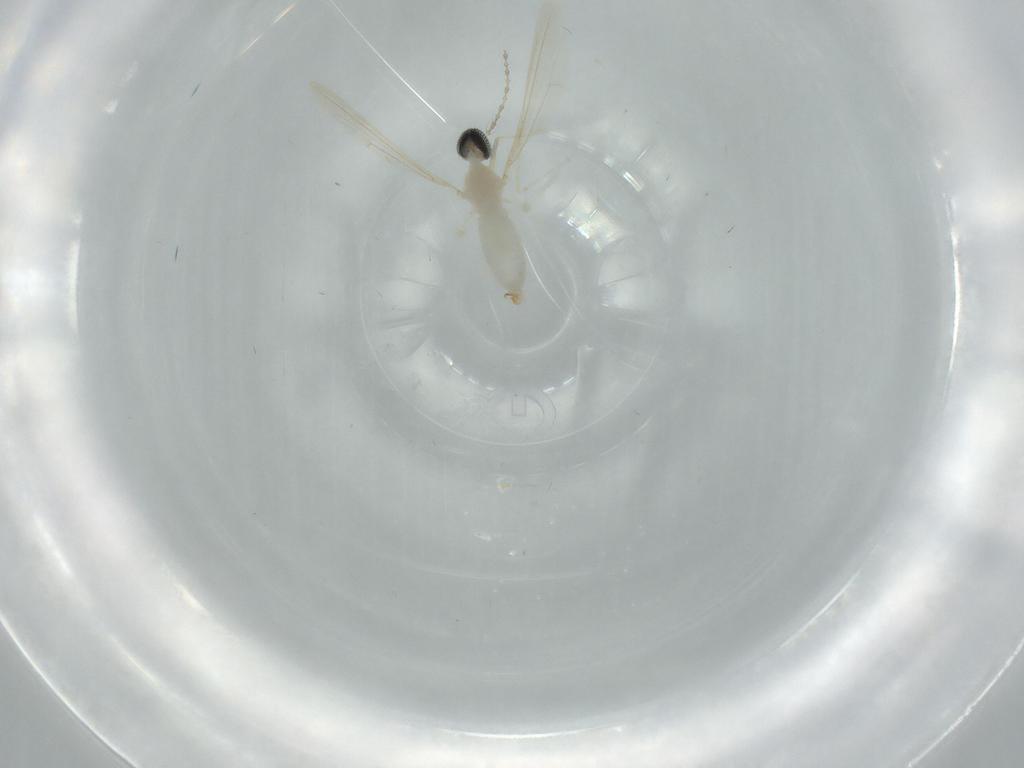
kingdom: Animalia
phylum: Arthropoda
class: Insecta
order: Diptera
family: Cecidomyiidae
